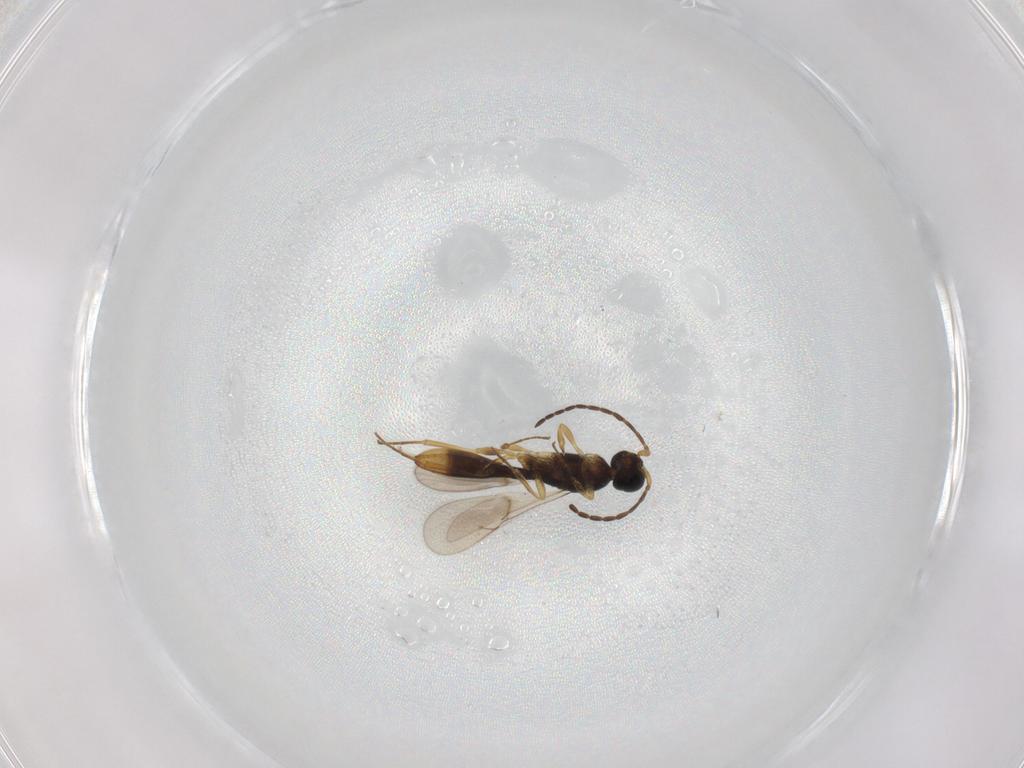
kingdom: Animalia
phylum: Arthropoda
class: Insecta
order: Hymenoptera
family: Scelionidae
